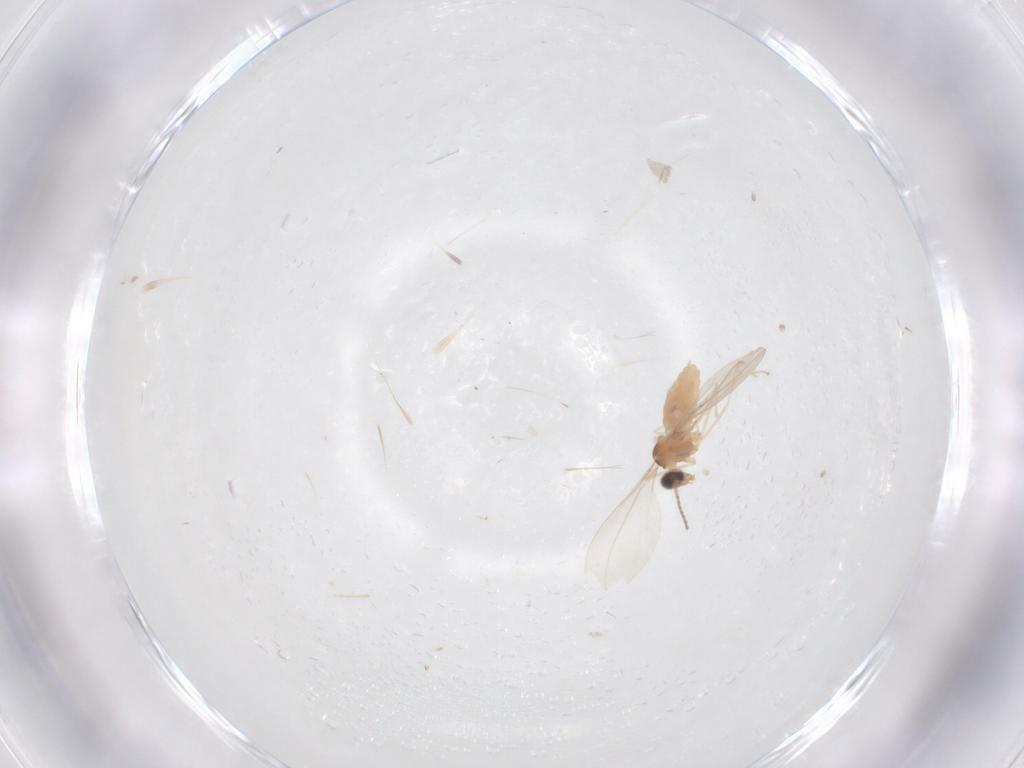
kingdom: Animalia
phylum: Arthropoda
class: Insecta
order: Diptera
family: Cecidomyiidae
